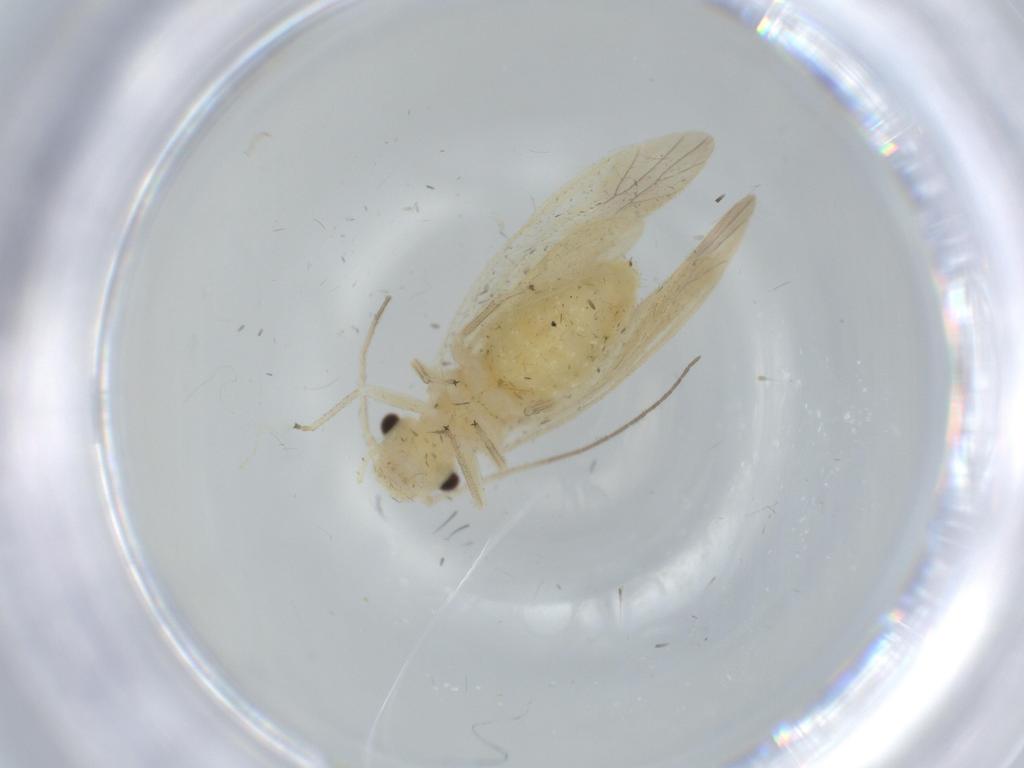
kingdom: Animalia
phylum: Arthropoda
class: Insecta
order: Psocodea
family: Caeciliusidae
